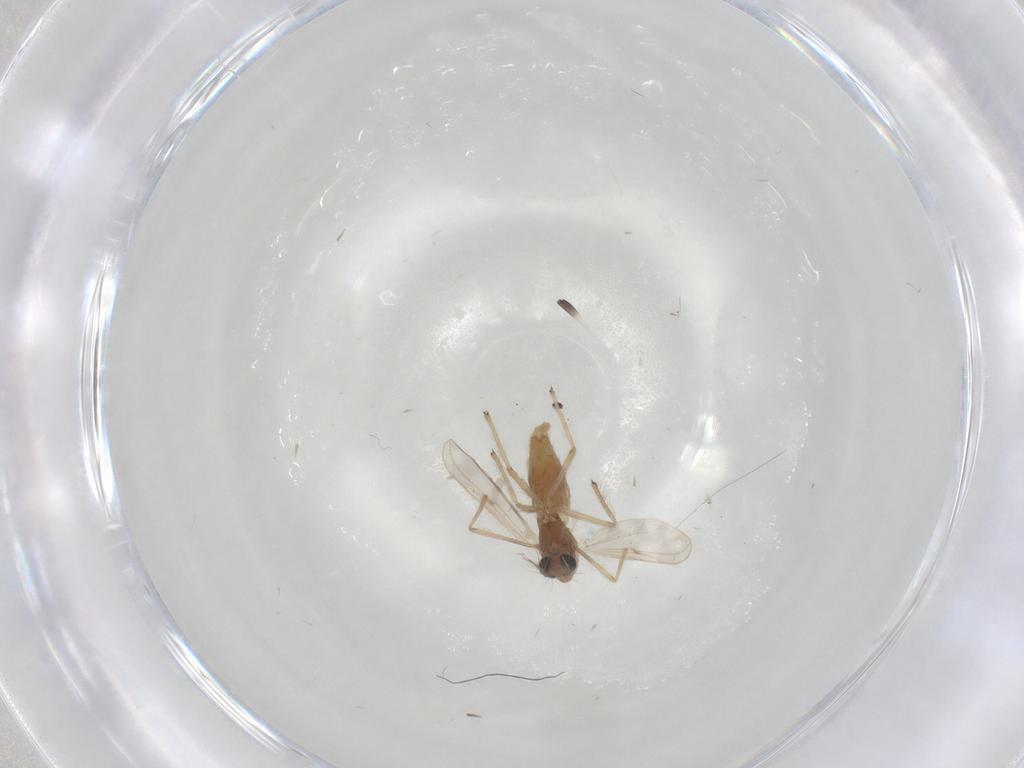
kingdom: Animalia
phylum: Arthropoda
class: Insecta
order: Diptera
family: Chironomidae
